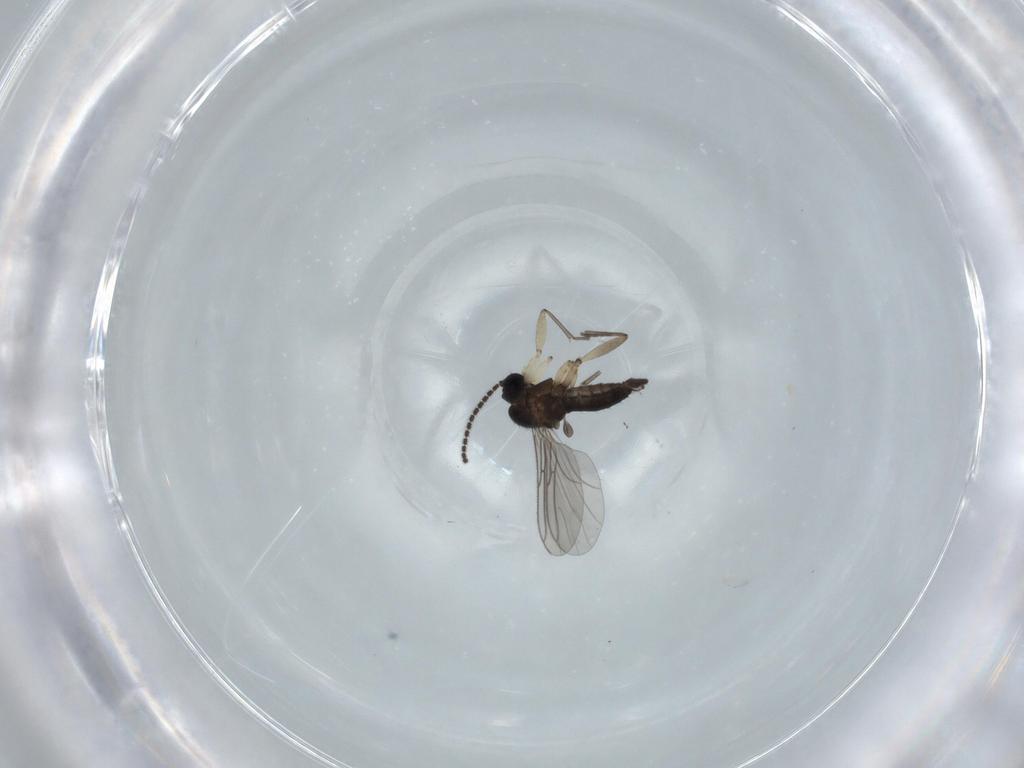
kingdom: Animalia
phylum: Arthropoda
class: Insecta
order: Diptera
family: Sciaridae
